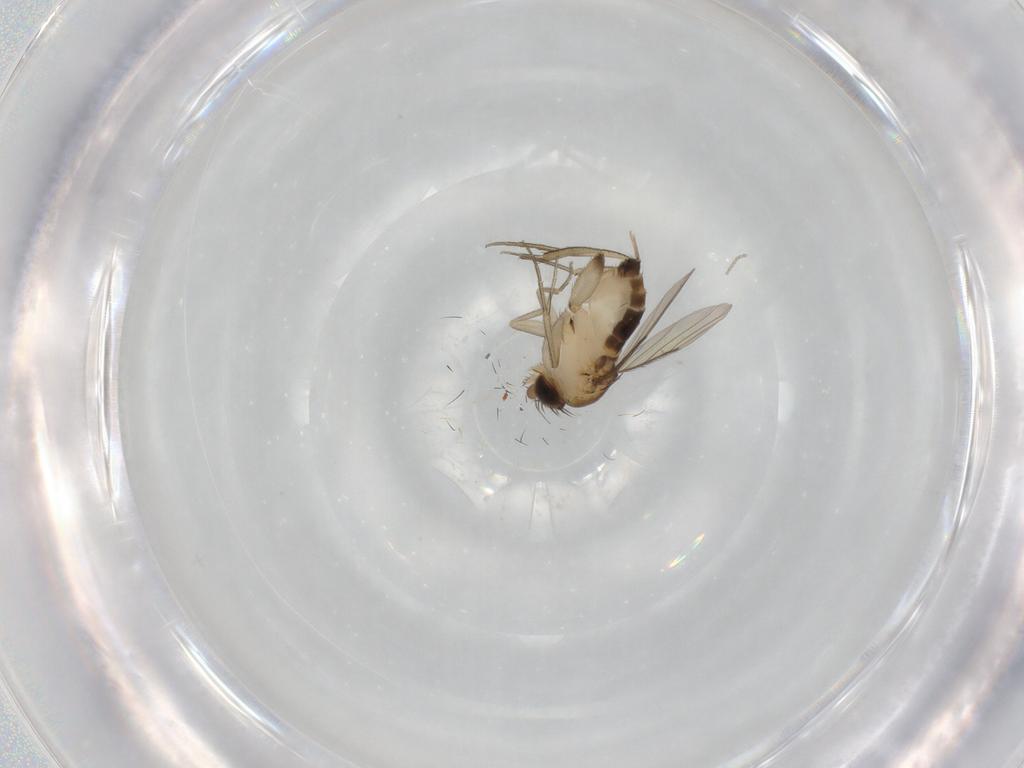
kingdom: Animalia
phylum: Arthropoda
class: Insecta
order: Diptera
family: Phoridae
